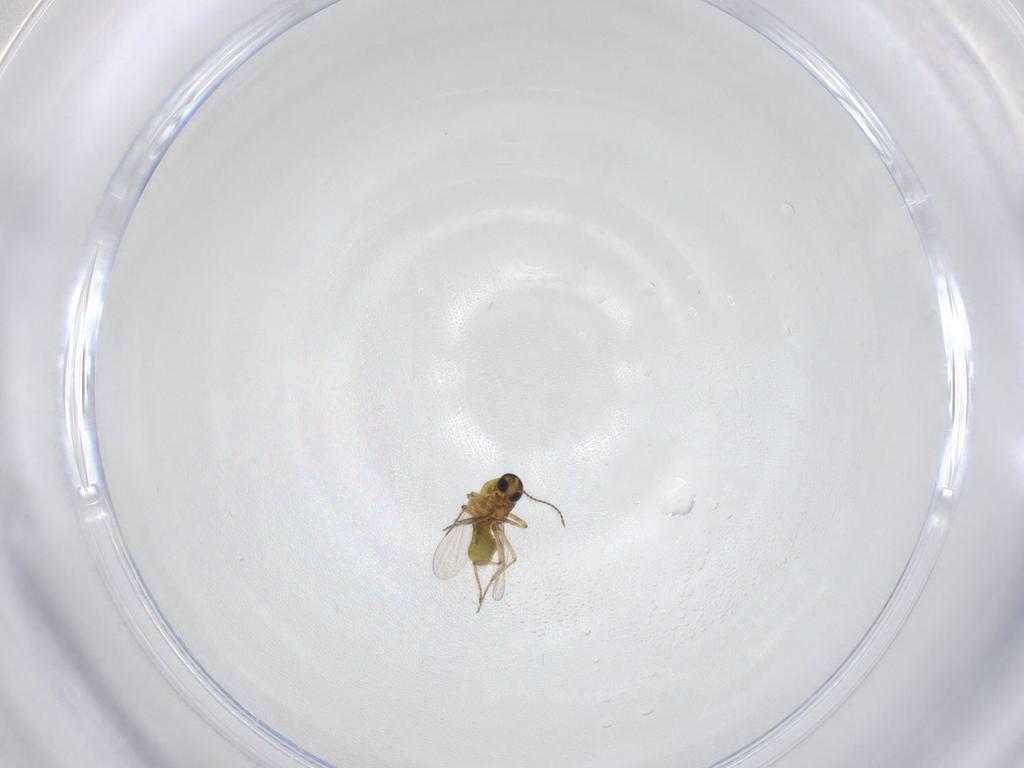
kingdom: Animalia
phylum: Arthropoda
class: Insecta
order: Diptera
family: Ceratopogonidae
